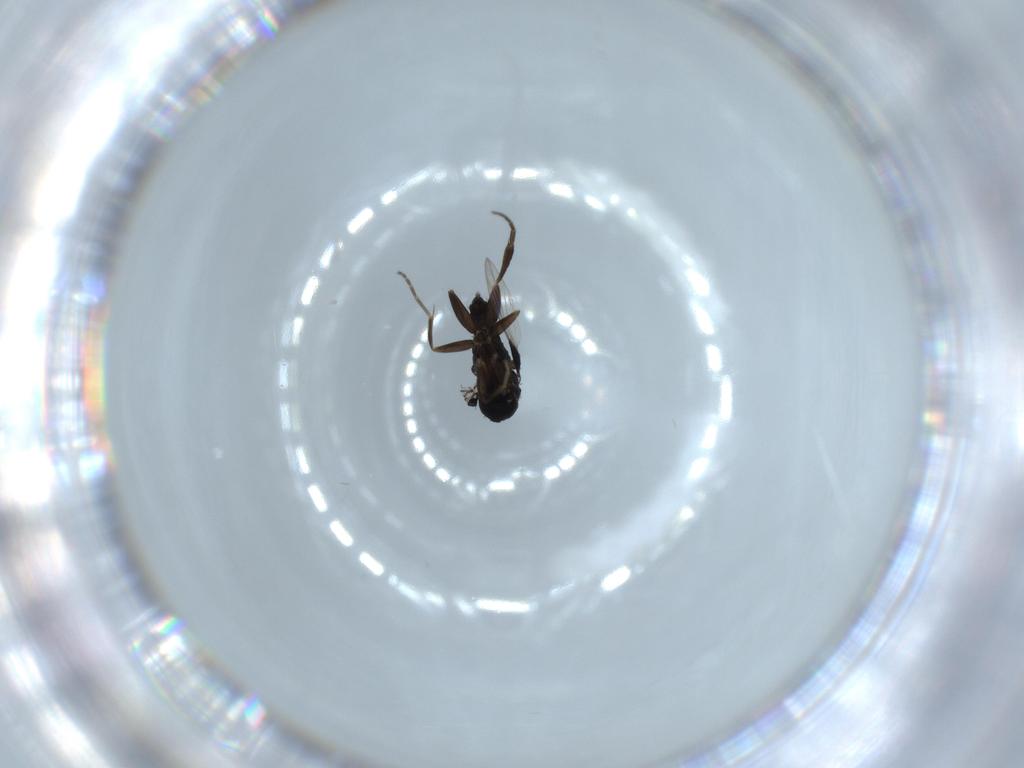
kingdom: Animalia
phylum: Arthropoda
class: Insecta
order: Diptera
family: Sciaridae
